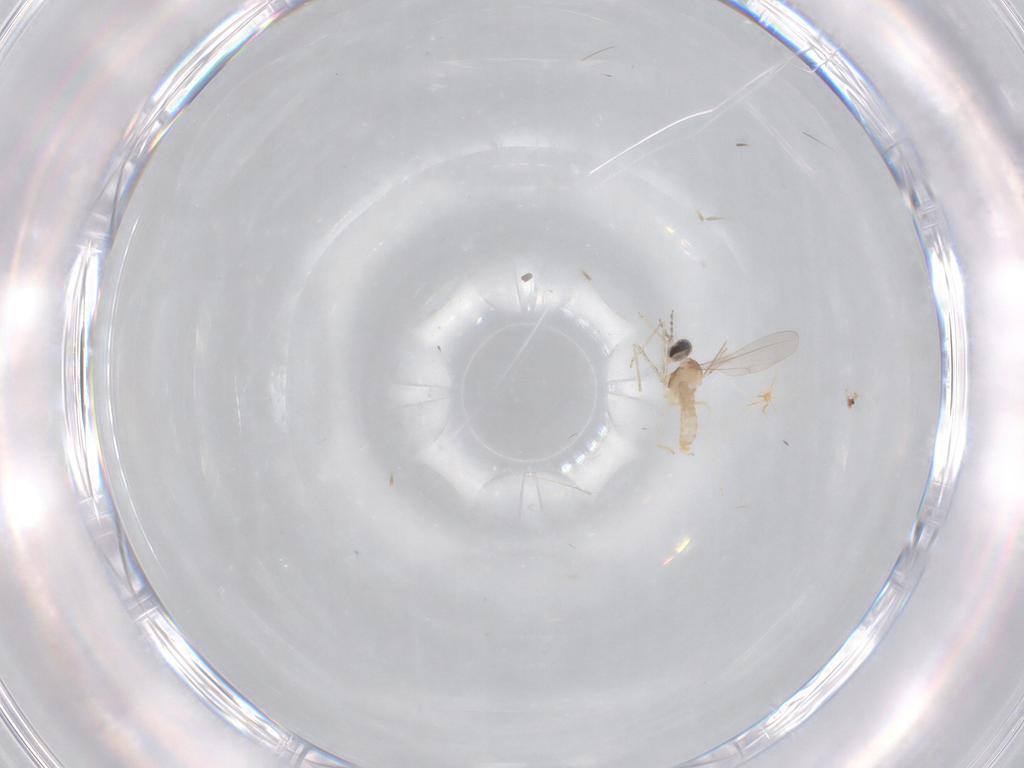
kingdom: Animalia
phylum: Arthropoda
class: Insecta
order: Diptera
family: Cecidomyiidae
